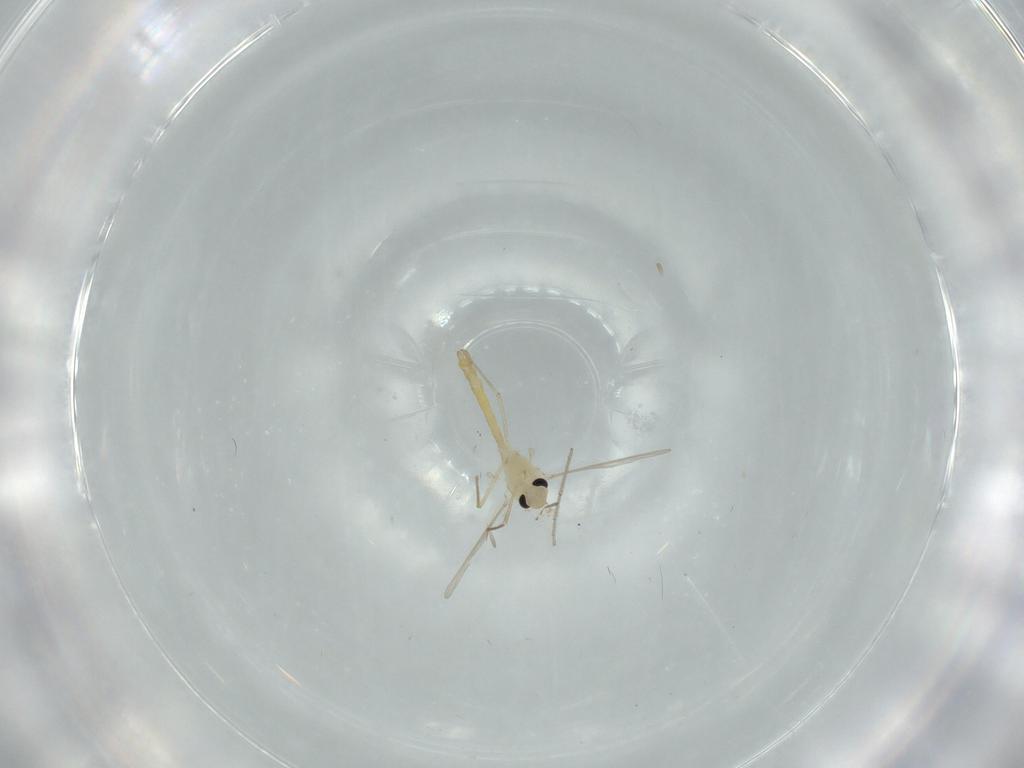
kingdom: Animalia
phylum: Arthropoda
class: Insecta
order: Diptera
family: Chironomidae
